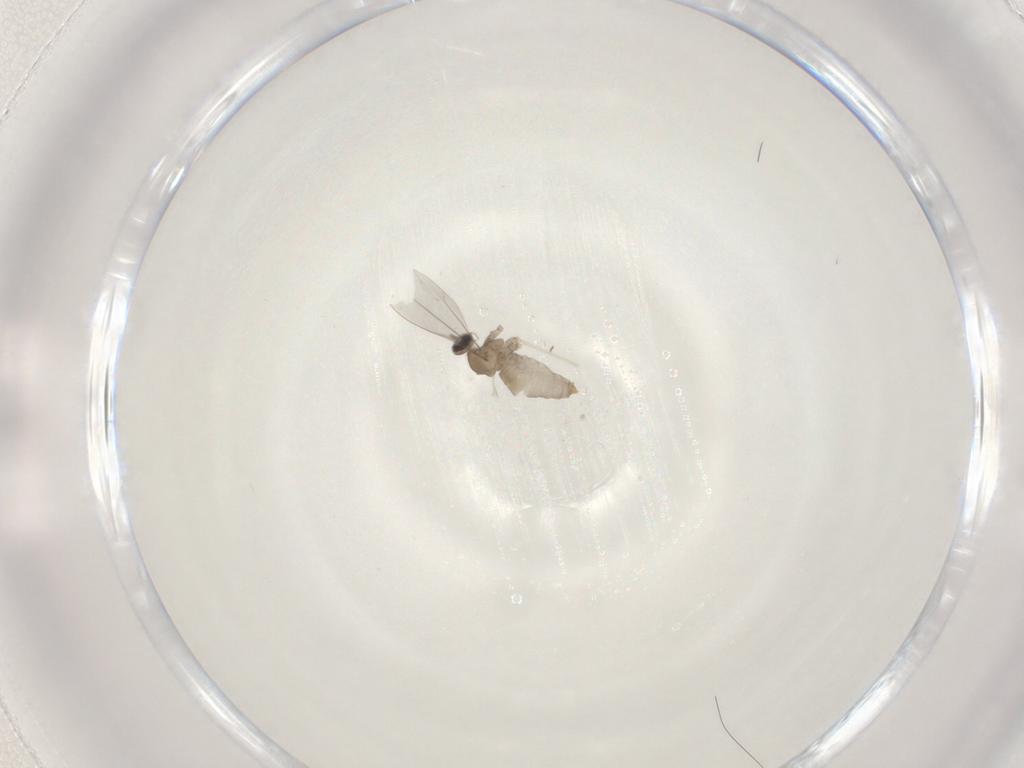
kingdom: Animalia
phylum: Arthropoda
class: Insecta
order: Diptera
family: Cecidomyiidae
